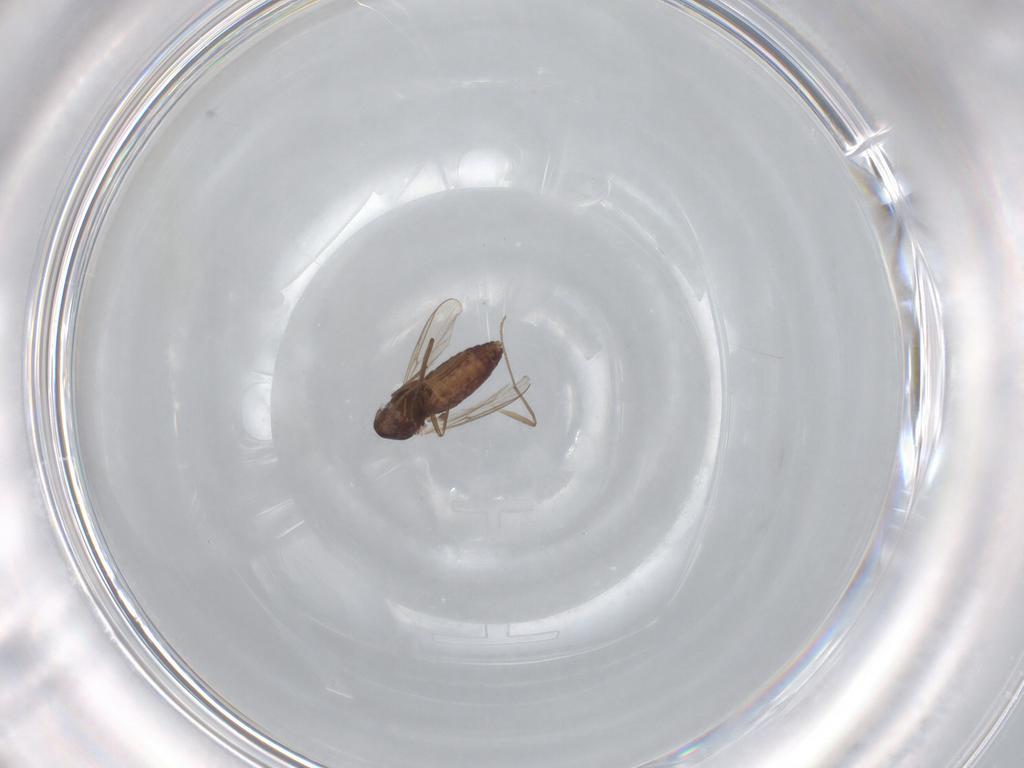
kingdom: Animalia
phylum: Arthropoda
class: Insecta
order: Diptera
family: Chironomidae
